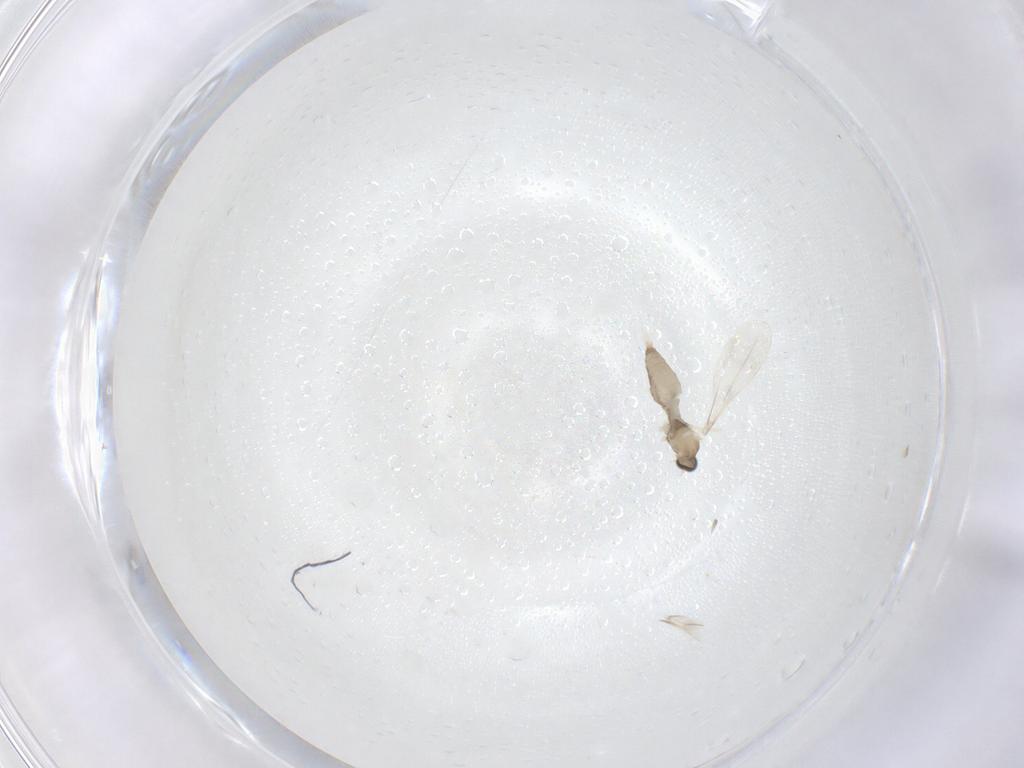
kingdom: Animalia
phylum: Arthropoda
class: Insecta
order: Diptera
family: Cecidomyiidae
